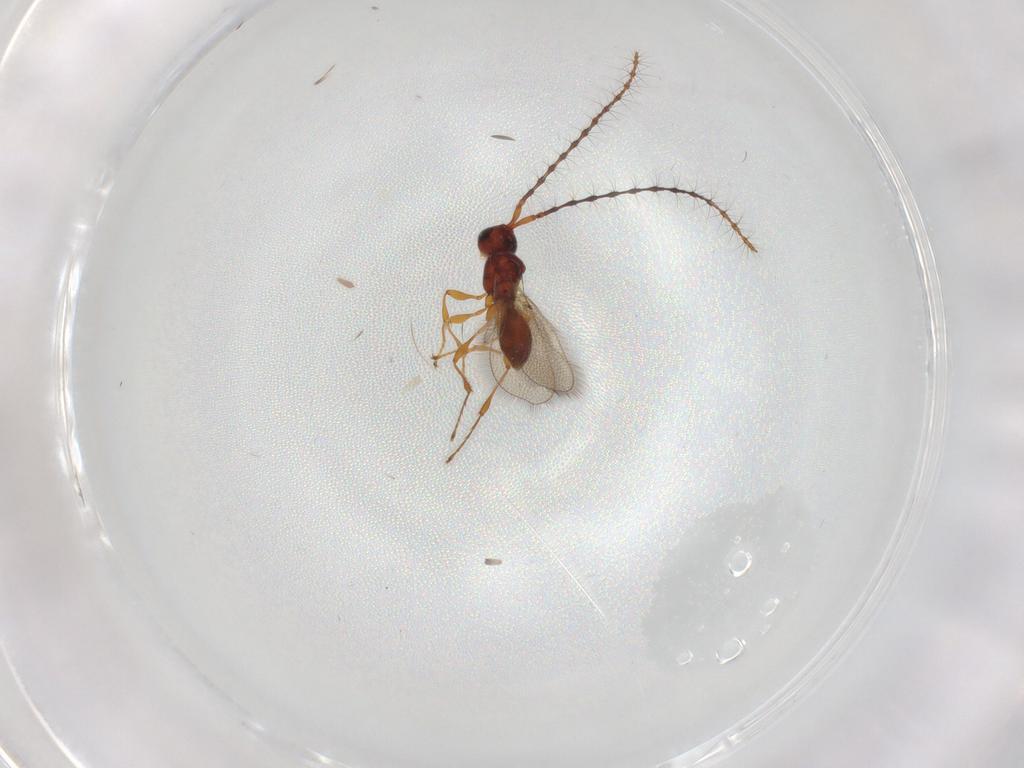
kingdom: Animalia
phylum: Arthropoda
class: Insecta
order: Hymenoptera
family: Diapriidae
